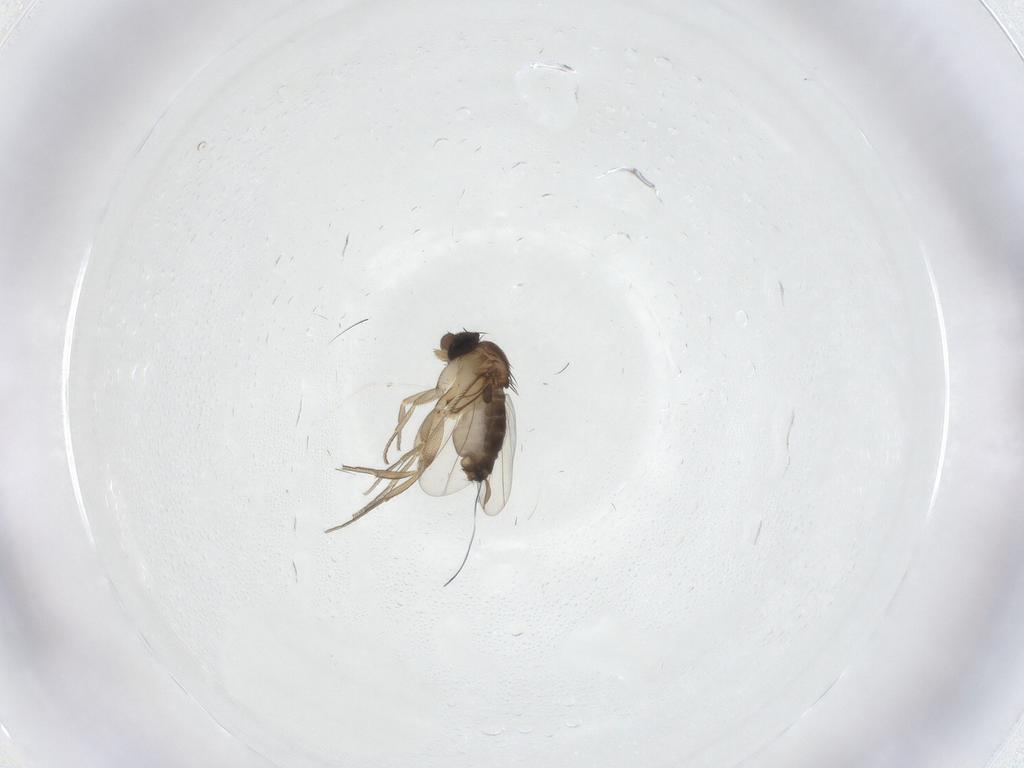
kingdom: Animalia
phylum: Arthropoda
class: Insecta
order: Diptera
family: Phoridae
